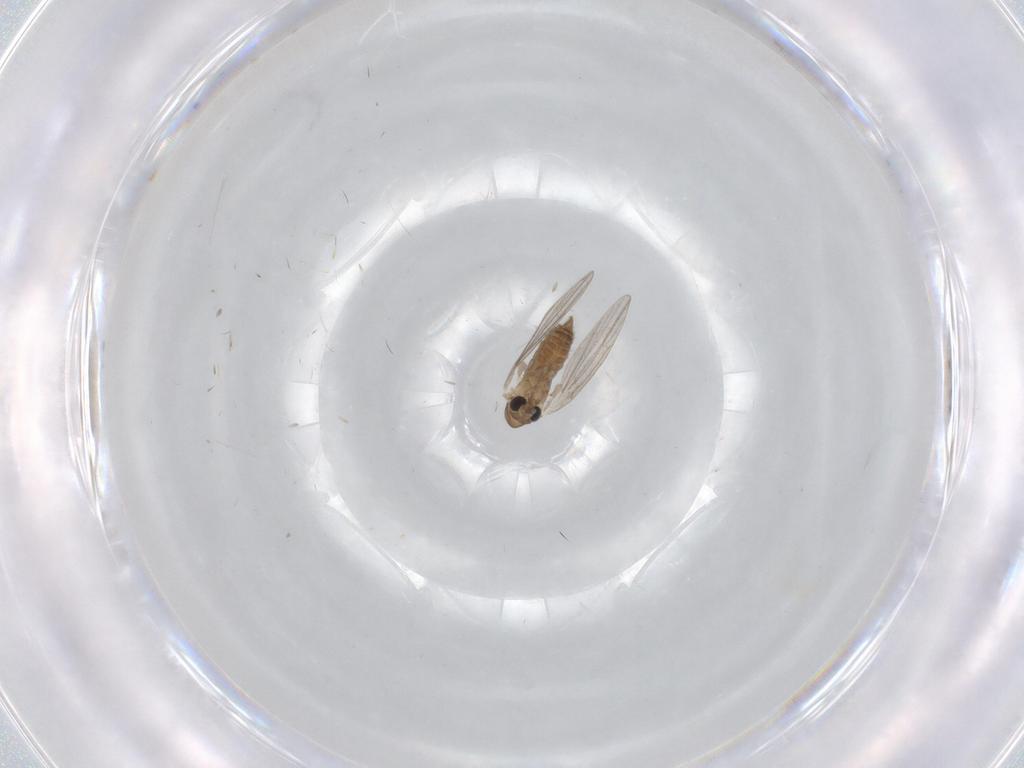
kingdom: Animalia
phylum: Arthropoda
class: Insecta
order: Diptera
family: Psychodidae
